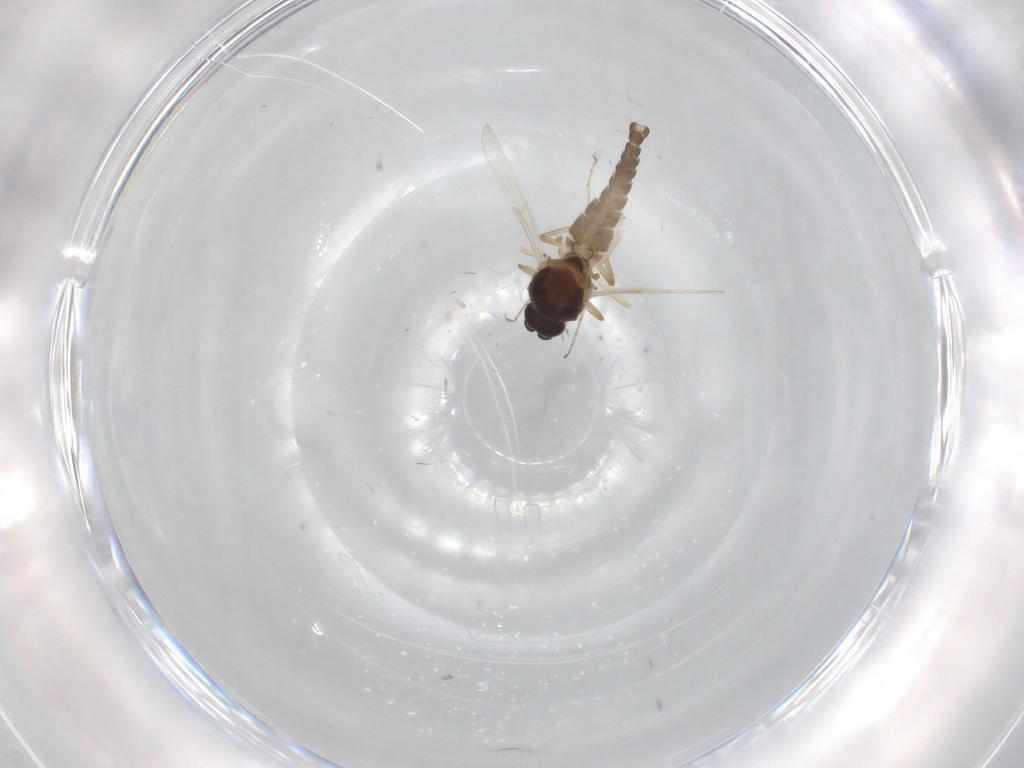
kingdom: Animalia
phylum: Arthropoda
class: Insecta
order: Diptera
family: Ceratopogonidae
